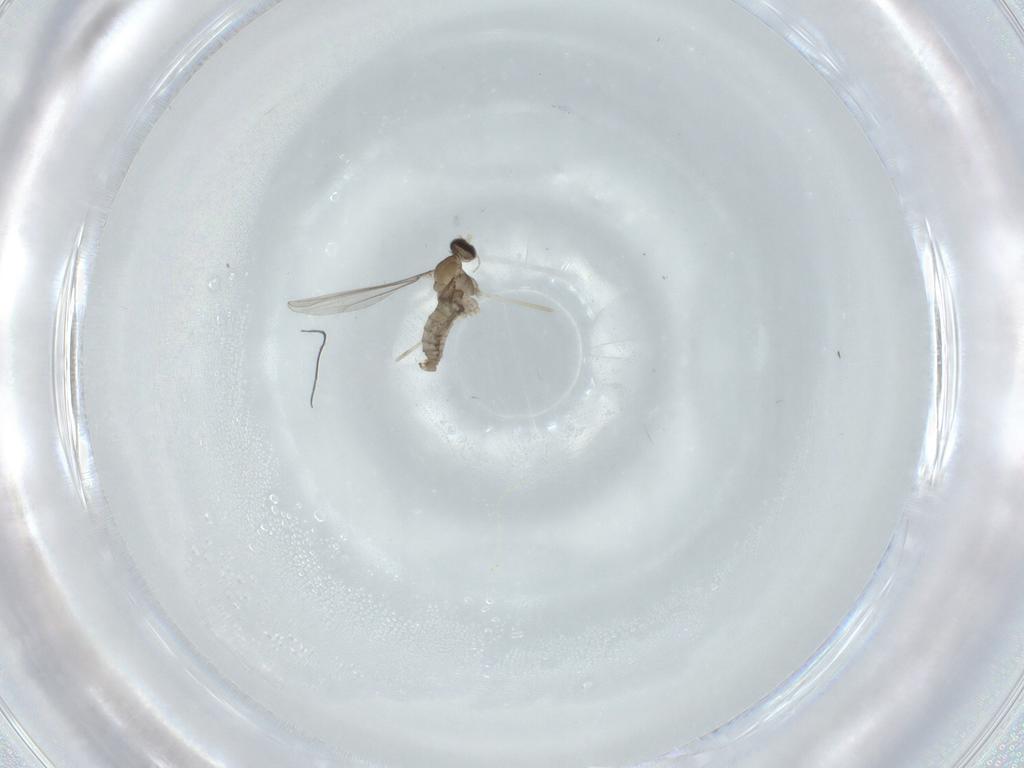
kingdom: Animalia
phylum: Arthropoda
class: Insecta
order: Diptera
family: Cecidomyiidae
